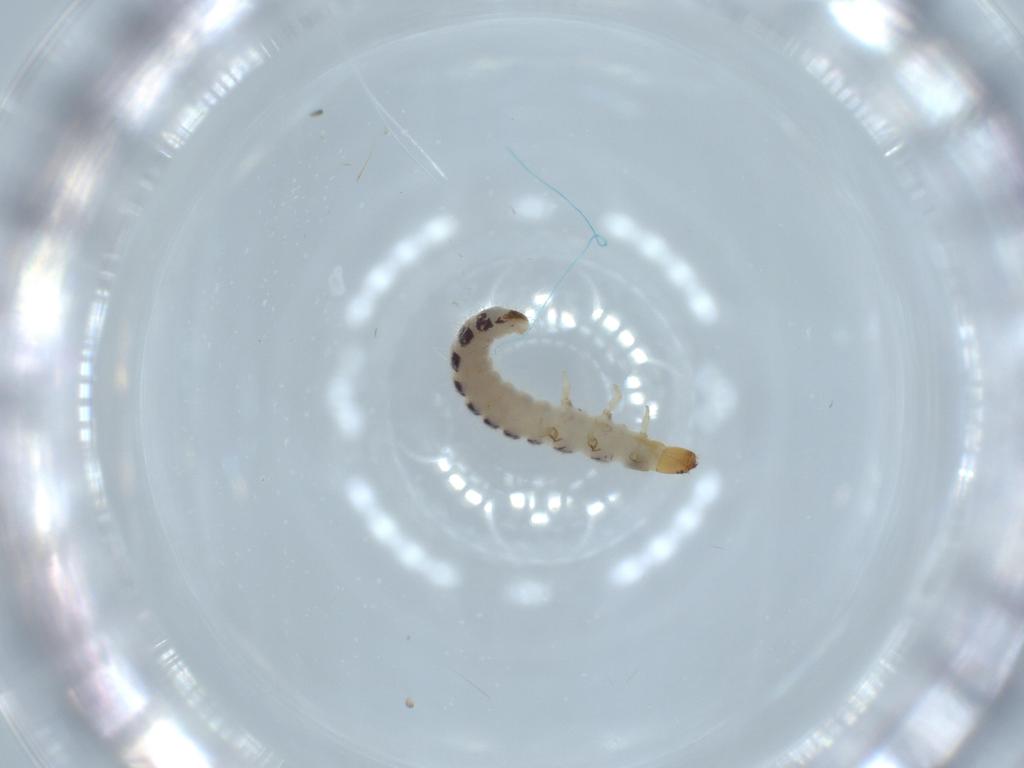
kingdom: Animalia
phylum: Arthropoda
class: Insecta
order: Coleoptera
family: Cleridae
